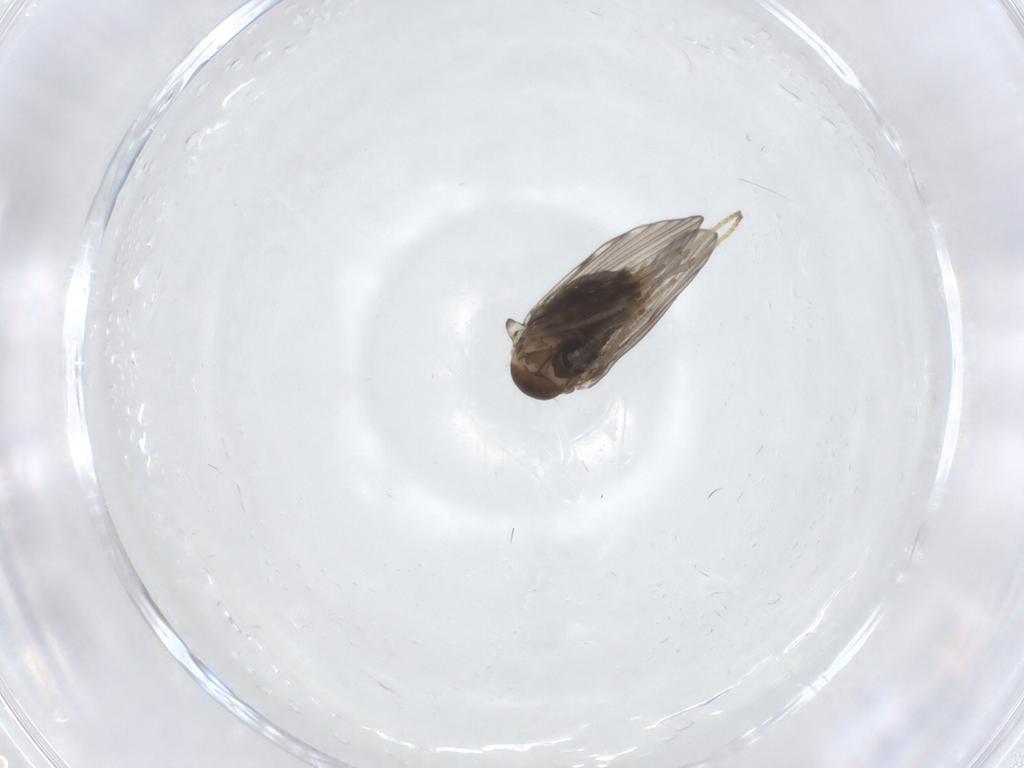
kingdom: Animalia
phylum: Arthropoda
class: Insecta
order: Diptera
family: Psychodidae
